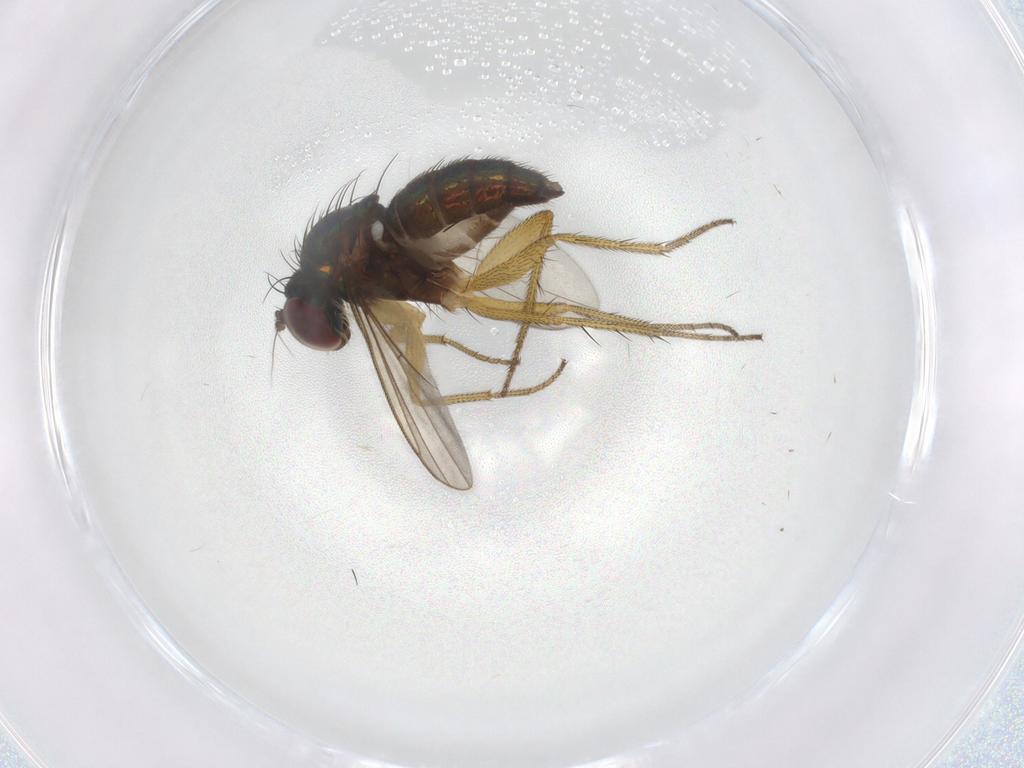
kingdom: Animalia
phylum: Arthropoda
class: Insecta
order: Diptera
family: Dolichopodidae
